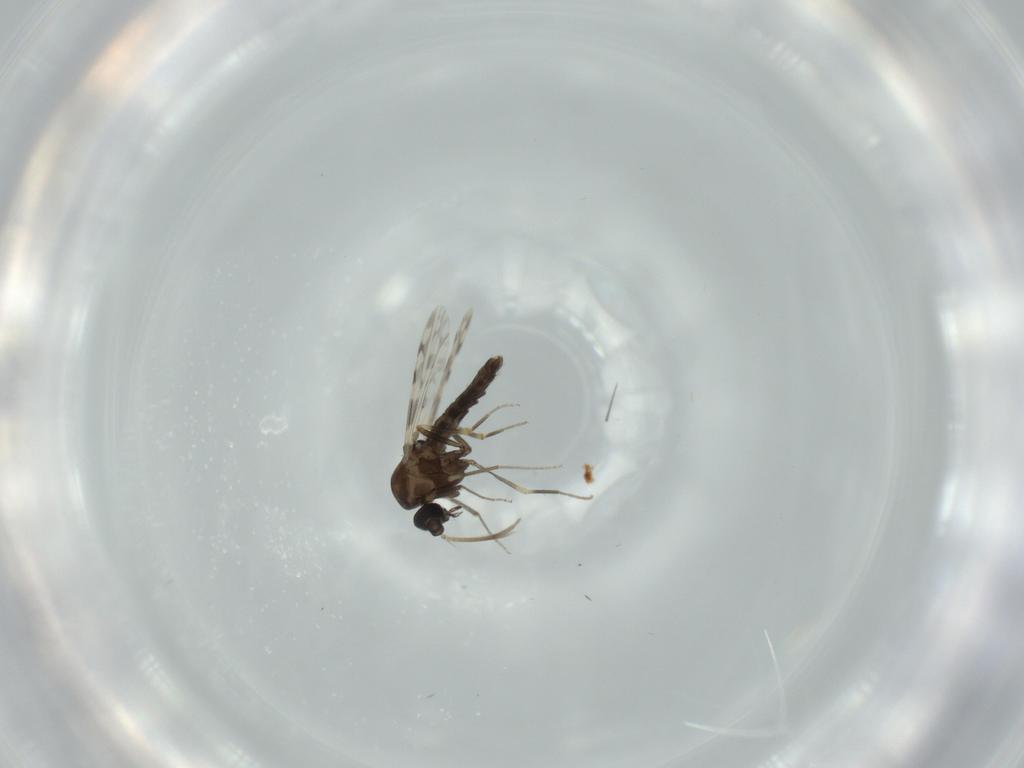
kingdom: Animalia
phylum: Arthropoda
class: Insecta
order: Diptera
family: Ceratopogonidae
